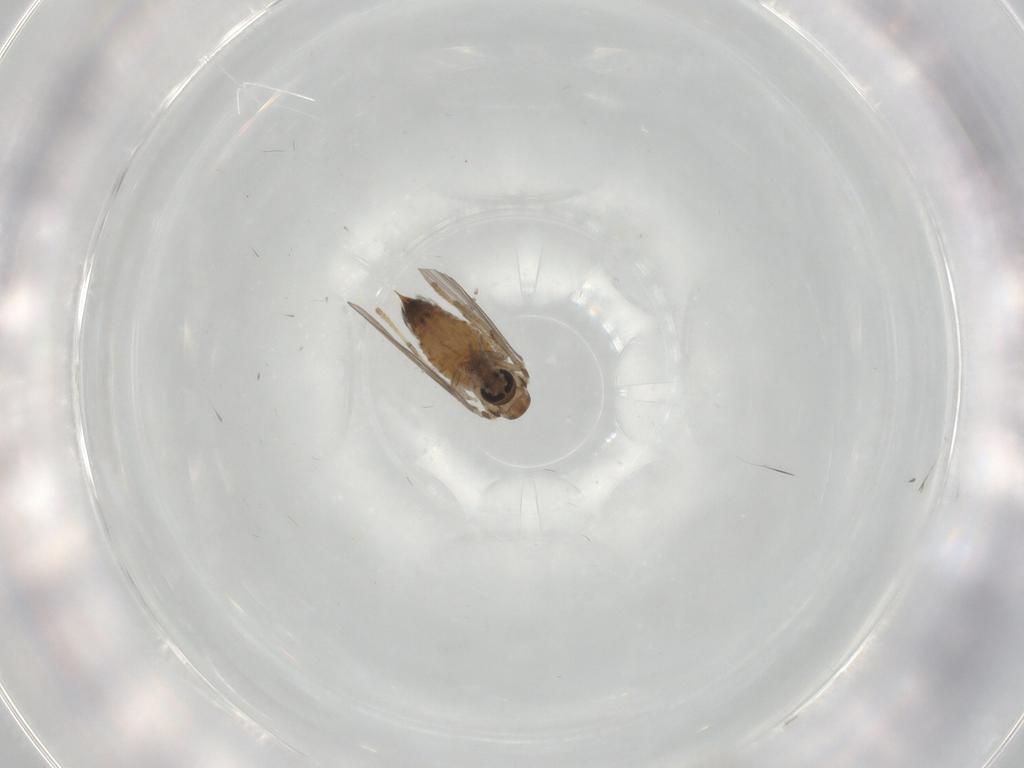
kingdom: Animalia
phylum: Arthropoda
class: Insecta
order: Diptera
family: Psychodidae
